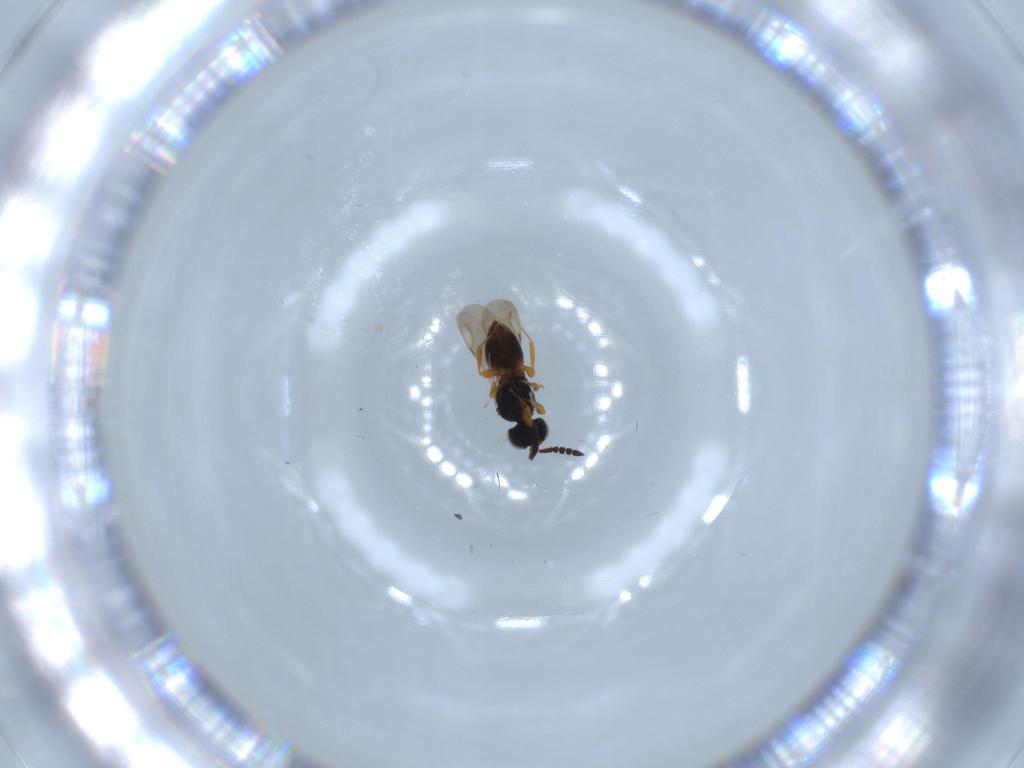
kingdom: Animalia
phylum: Arthropoda
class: Insecta
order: Hymenoptera
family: Ceraphronidae
